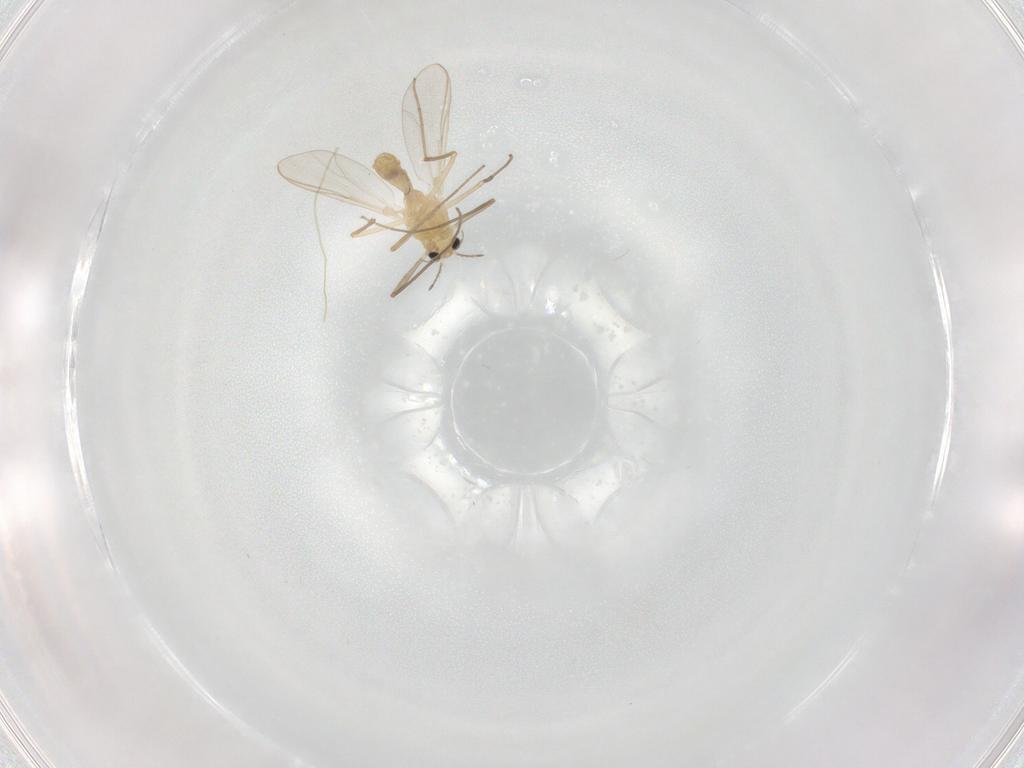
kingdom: Animalia
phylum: Arthropoda
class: Insecta
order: Diptera
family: Chironomidae
